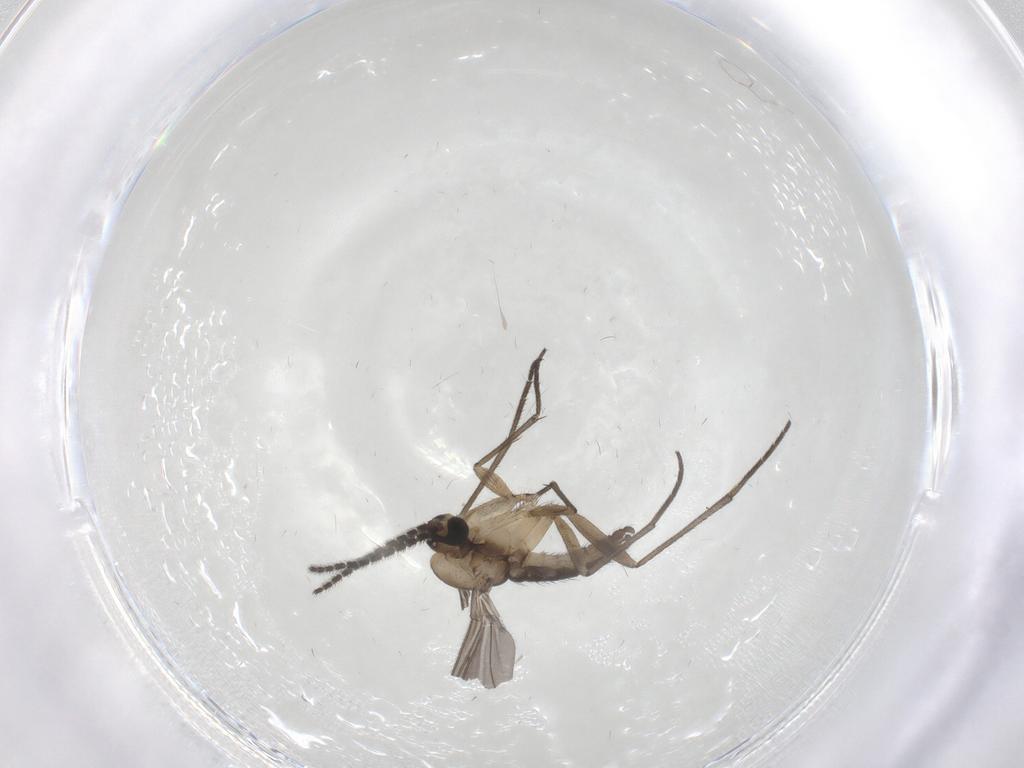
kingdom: Animalia
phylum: Arthropoda
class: Insecta
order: Diptera
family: Sciaridae
